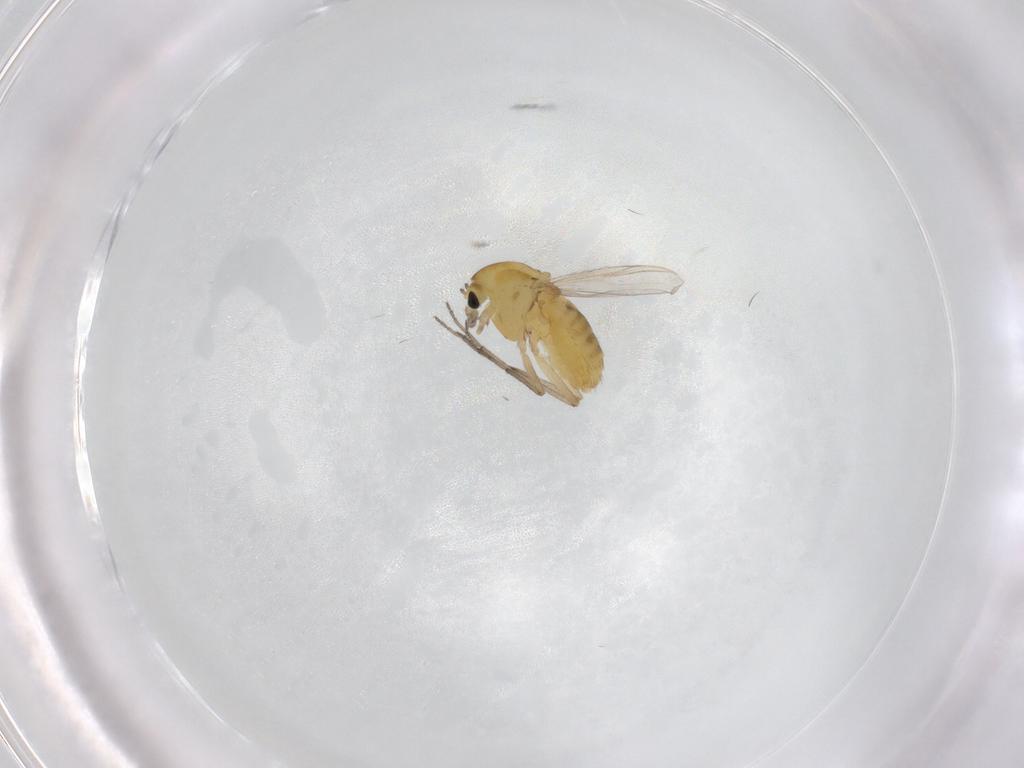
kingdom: Animalia
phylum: Arthropoda
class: Insecta
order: Diptera
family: Chironomidae
